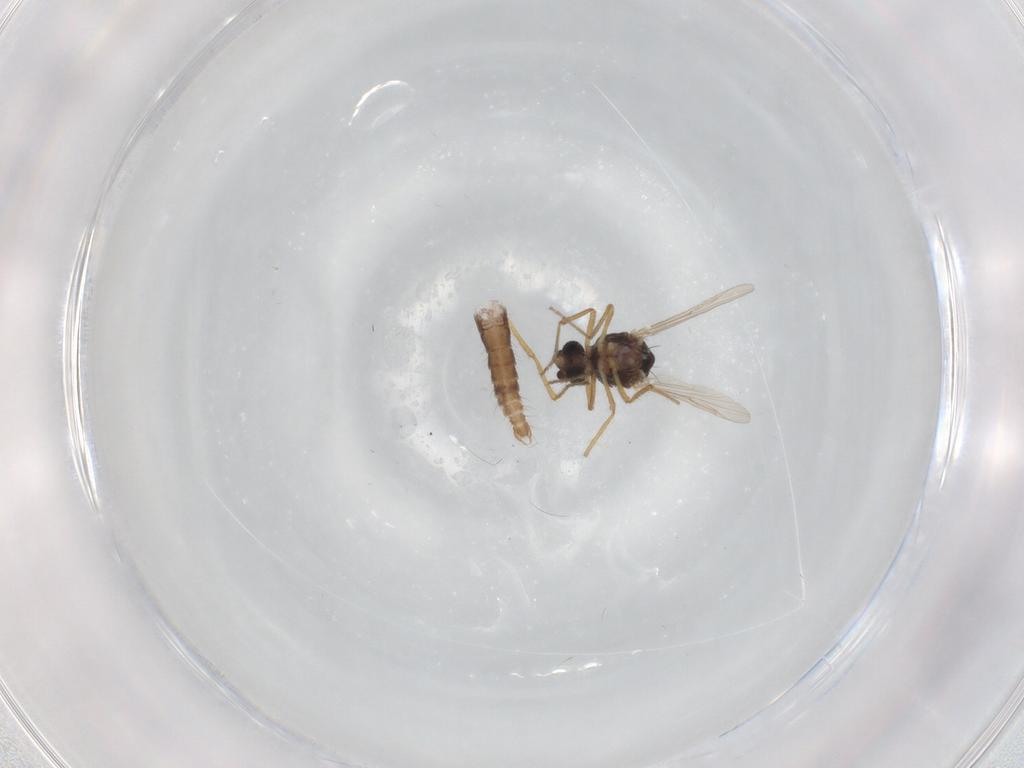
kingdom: Animalia
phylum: Arthropoda
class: Insecta
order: Diptera
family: Ceratopogonidae
